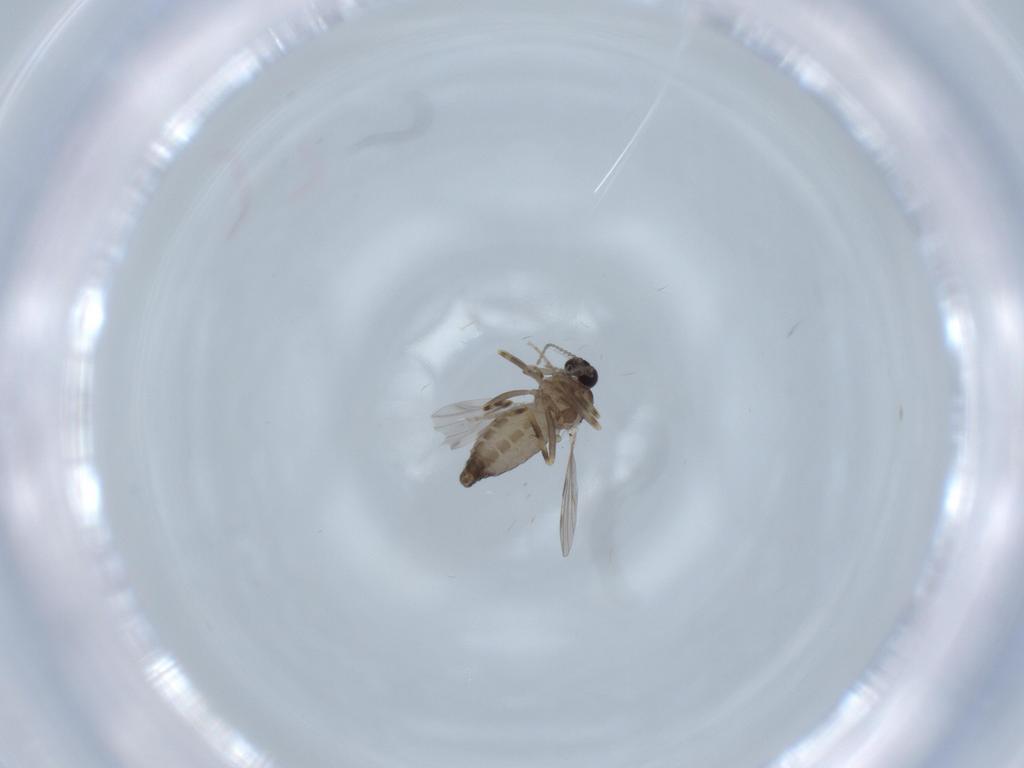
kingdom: Animalia
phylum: Arthropoda
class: Insecta
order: Diptera
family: Ceratopogonidae
